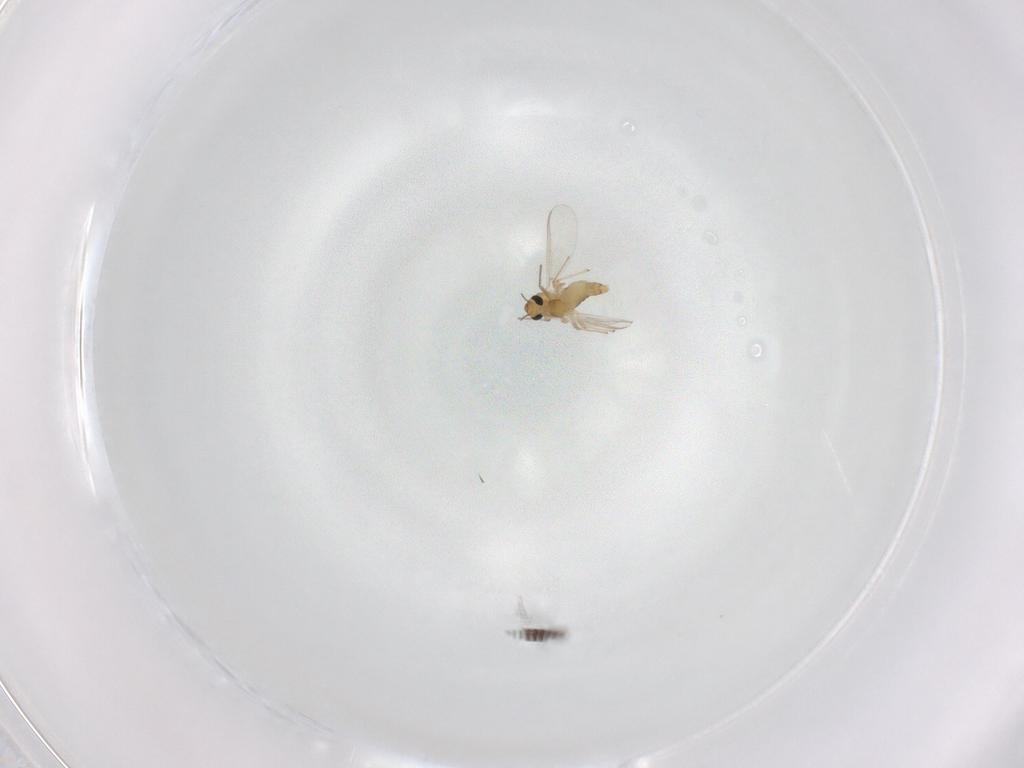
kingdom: Animalia
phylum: Arthropoda
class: Insecta
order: Diptera
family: Chironomidae
